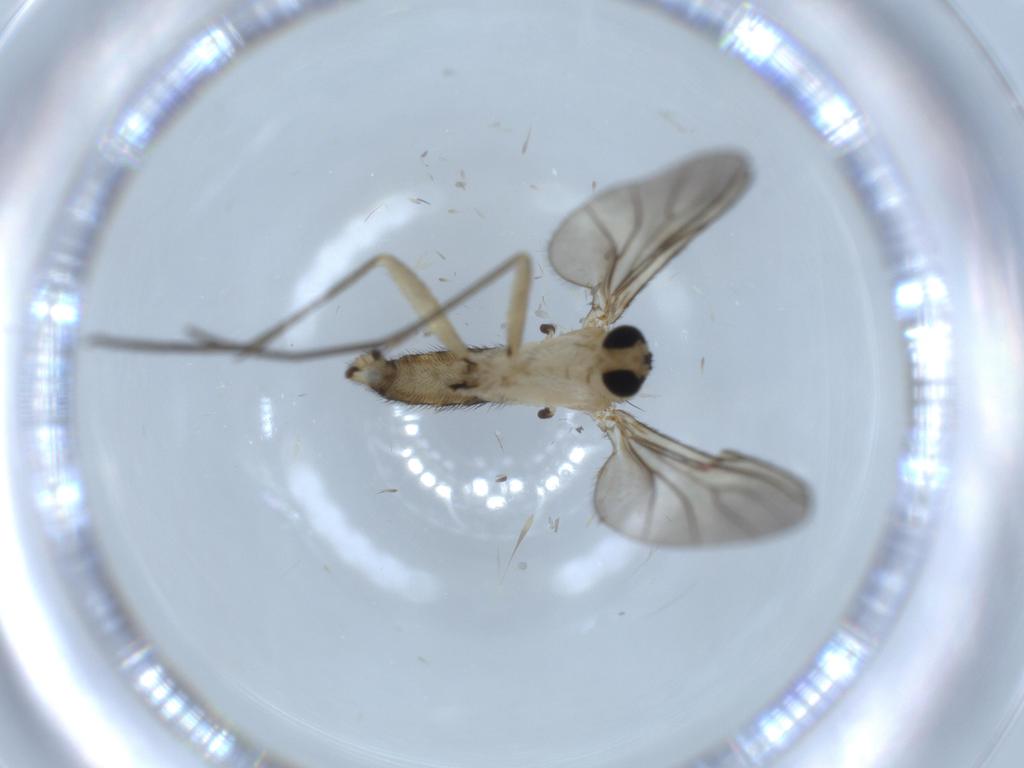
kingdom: Animalia
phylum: Arthropoda
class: Insecta
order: Diptera
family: Sciaridae
